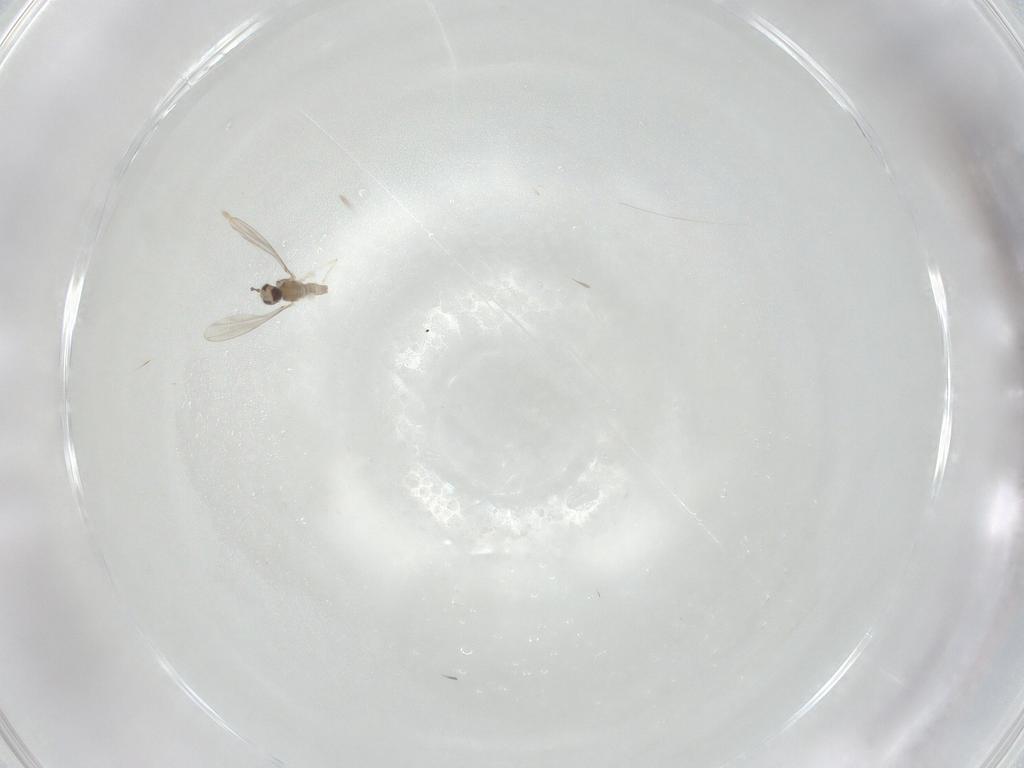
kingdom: Animalia
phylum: Arthropoda
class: Insecta
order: Diptera
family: Cecidomyiidae
